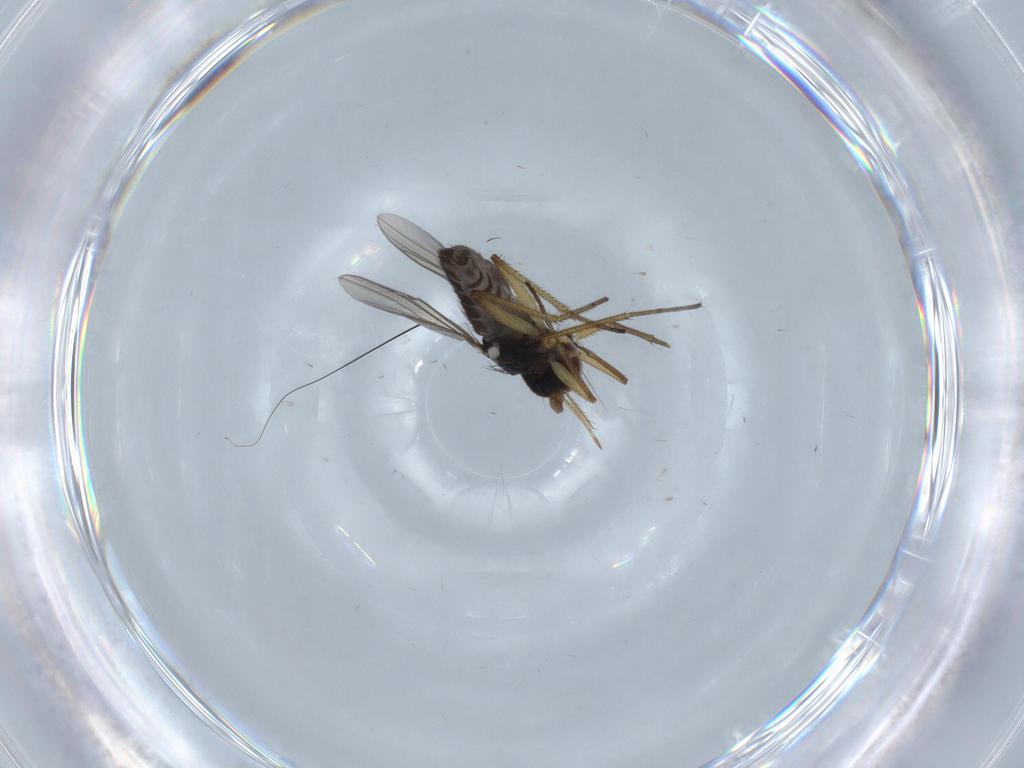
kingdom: Animalia
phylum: Arthropoda
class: Insecta
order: Diptera
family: Dolichopodidae
